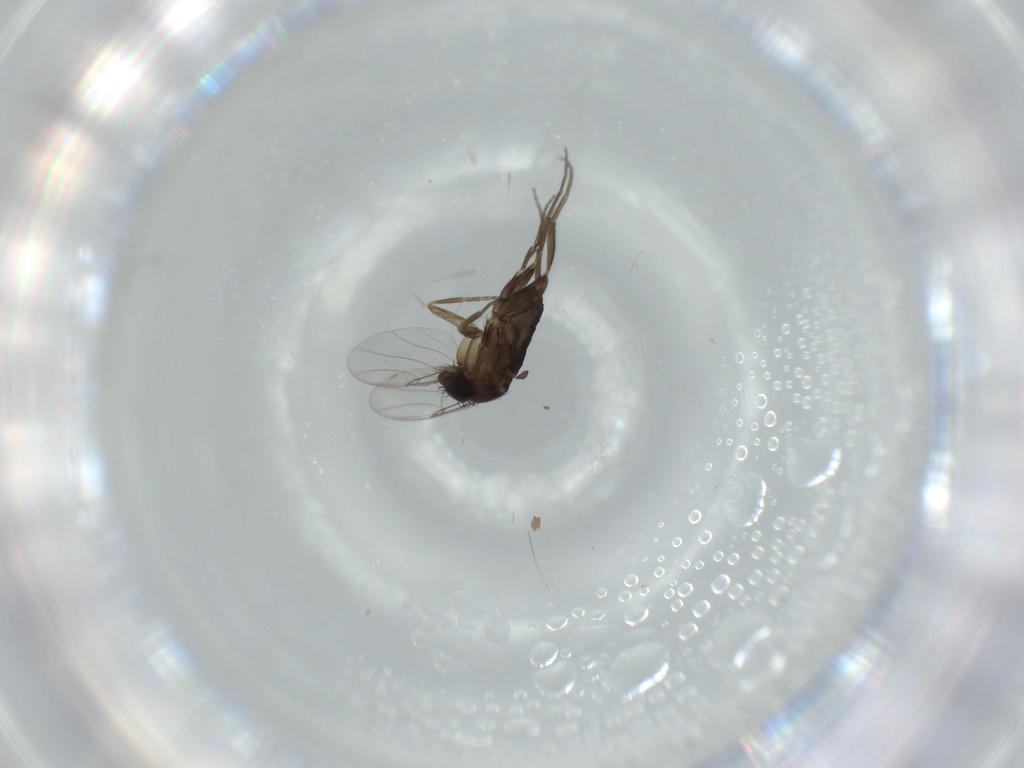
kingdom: Animalia
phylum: Arthropoda
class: Insecta
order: Diptera
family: Phoridae
